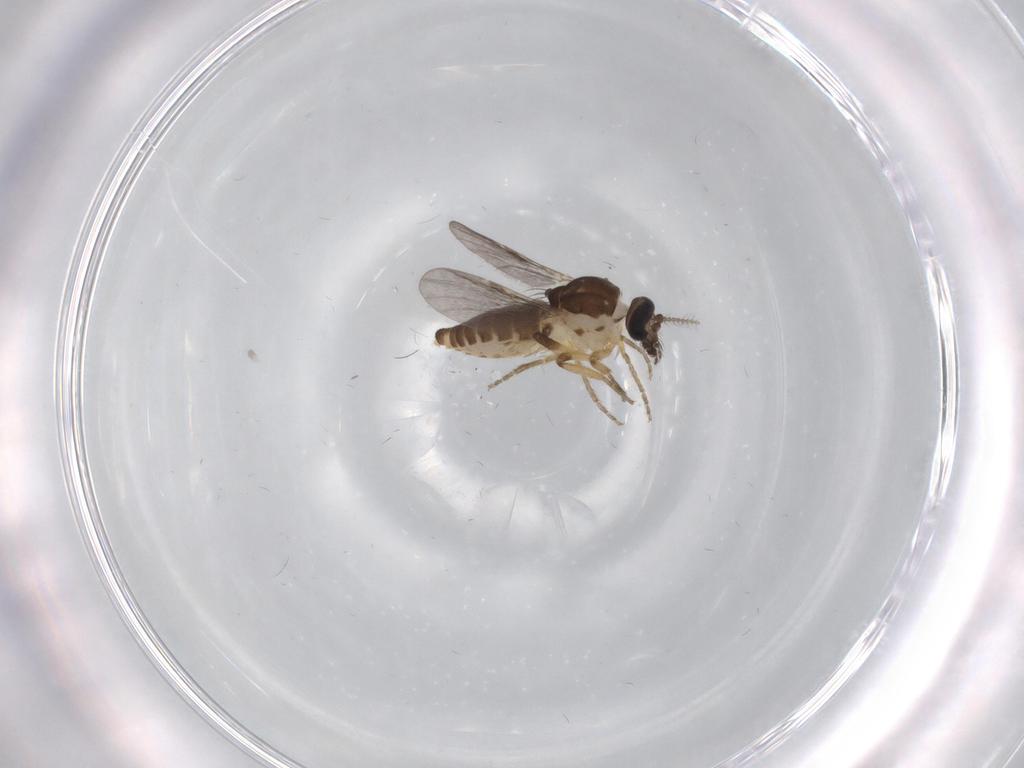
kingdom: Animalia
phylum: Arthropoda
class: Insecta
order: Diptera
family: Ceratopogonidae
